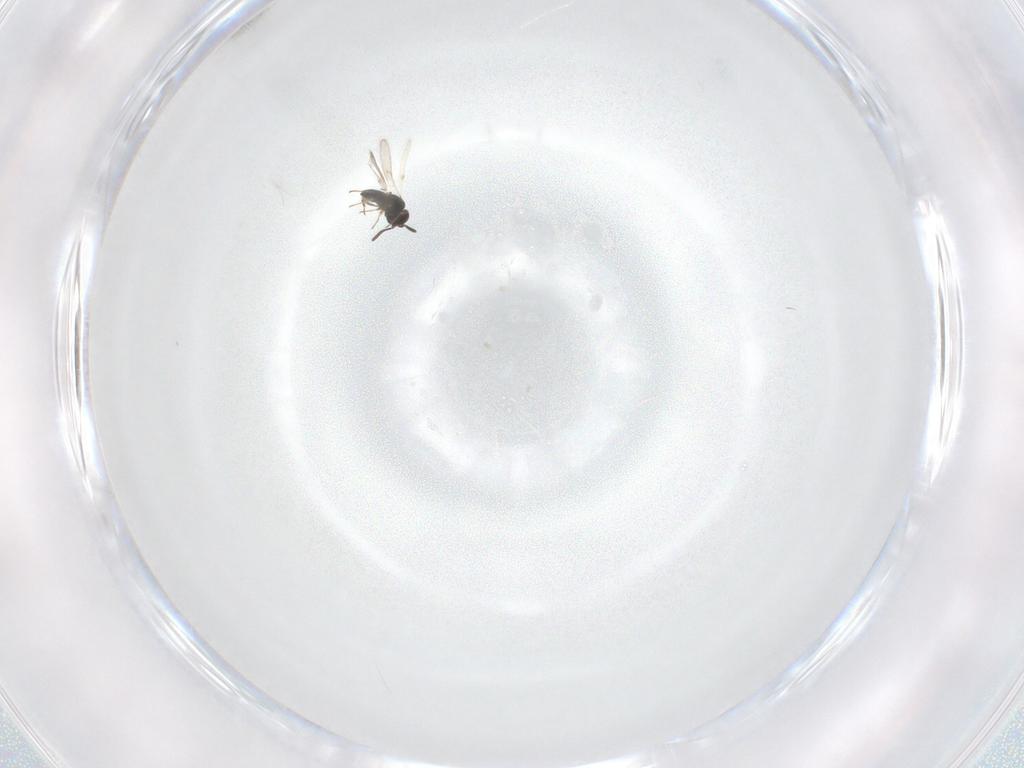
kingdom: Animalia
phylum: Arthropoda
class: Insecta
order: Hymenoptera
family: Scelionidae
